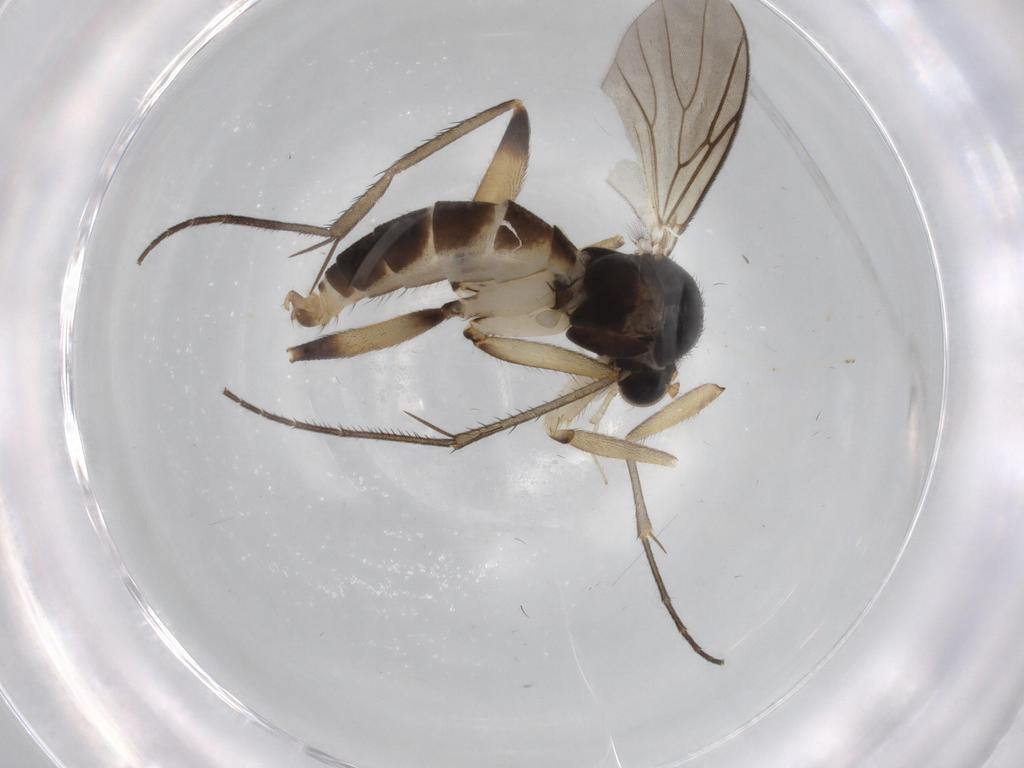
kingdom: Animalia
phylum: Arthropoda
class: Insecta
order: Diptera
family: Phoridae
